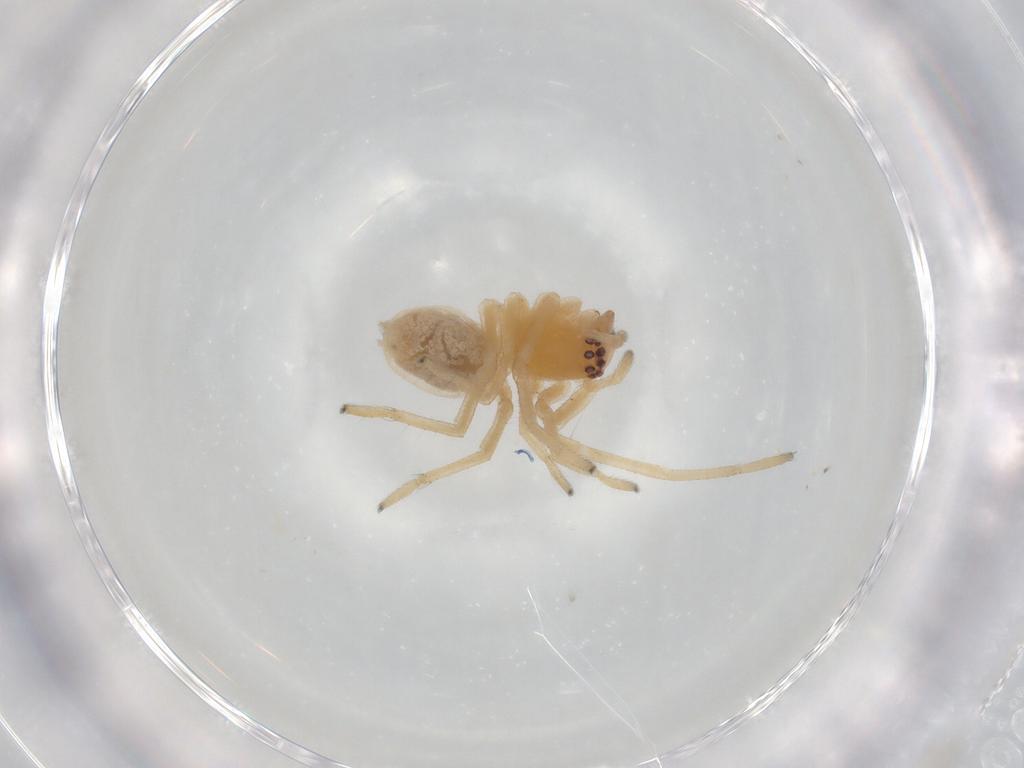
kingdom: Animalia
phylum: Arthropoda
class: Arachnida
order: Araneae
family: Cheiracanthiidae
